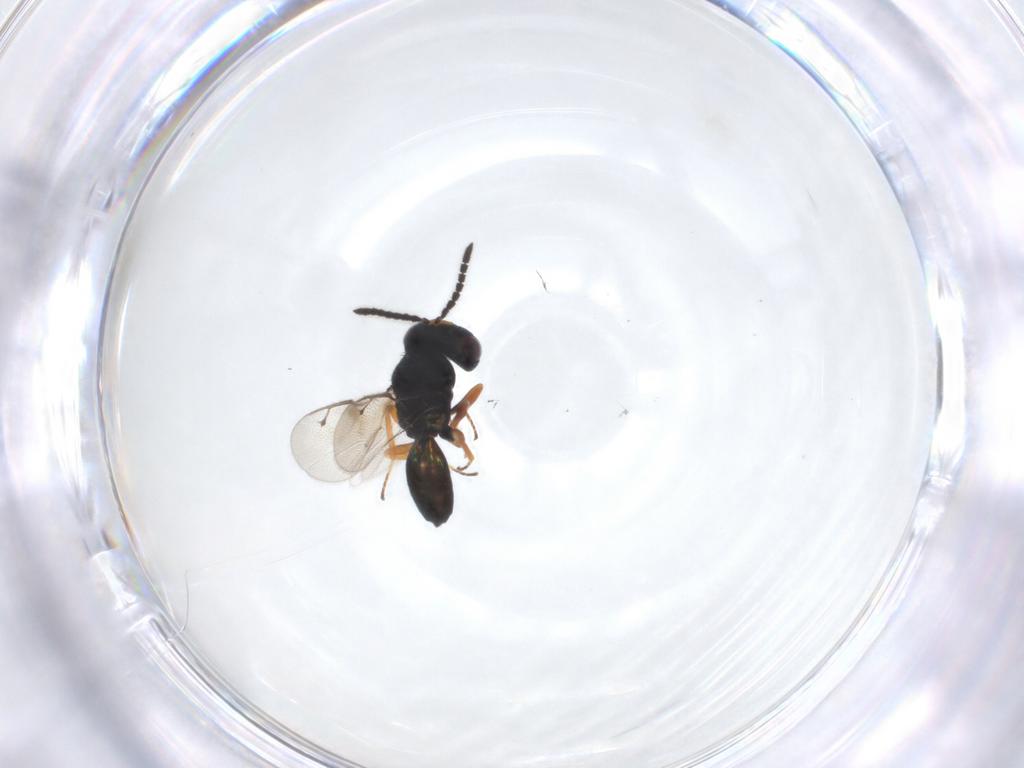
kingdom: Animalia
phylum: Arthropoda
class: Insecta
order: Hymenoptera
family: Pteromalidae
